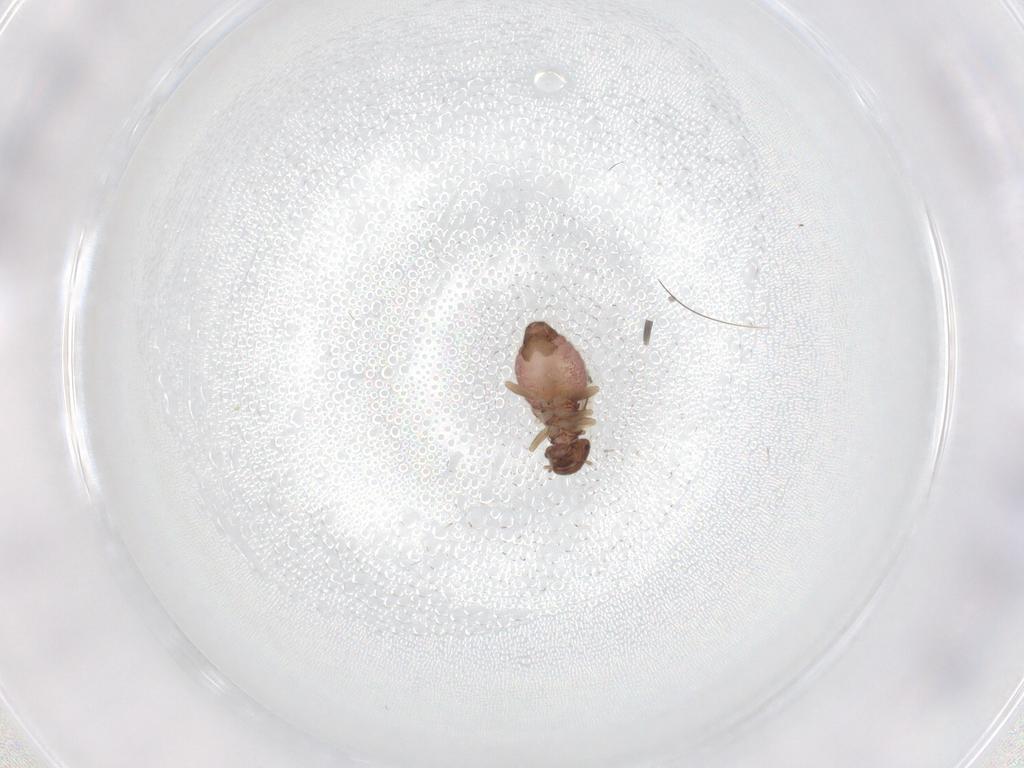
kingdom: Animalia
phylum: Arthropoda
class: Insecta
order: Psocodea
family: Archipsocidae
